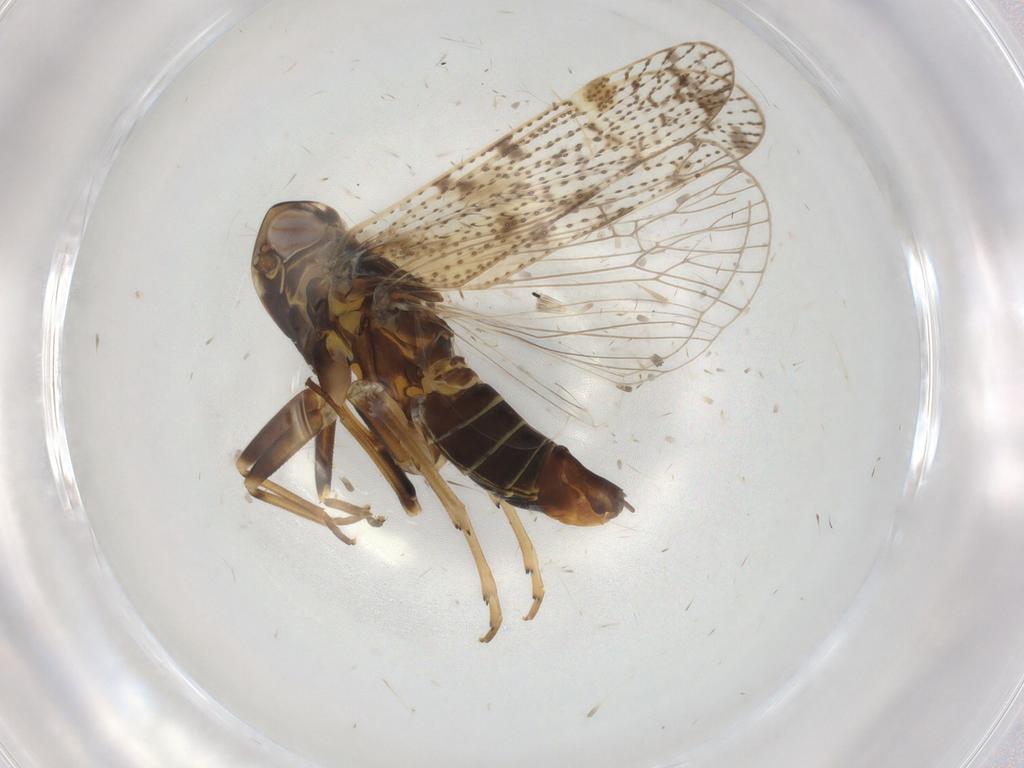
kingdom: Animalia
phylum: Arthropoda
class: Insecta
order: Hemiptera
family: Cixiidae
